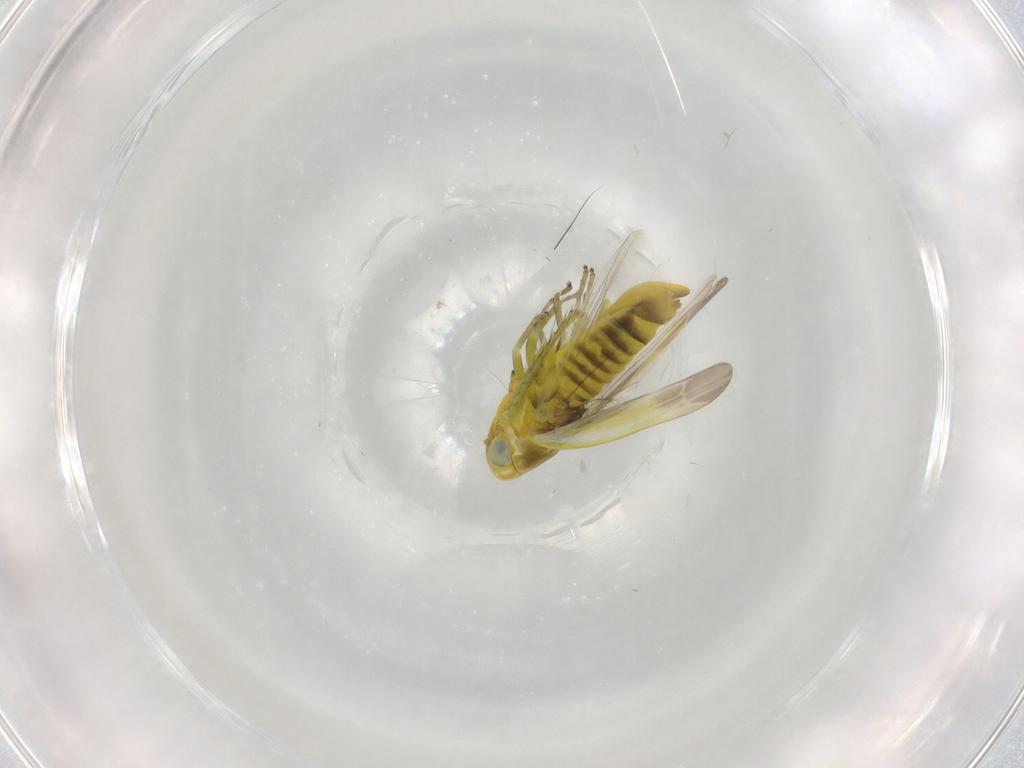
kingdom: Animalia
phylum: Arthropoda
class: Insecta
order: Hemiptera
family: Cicadellidae
